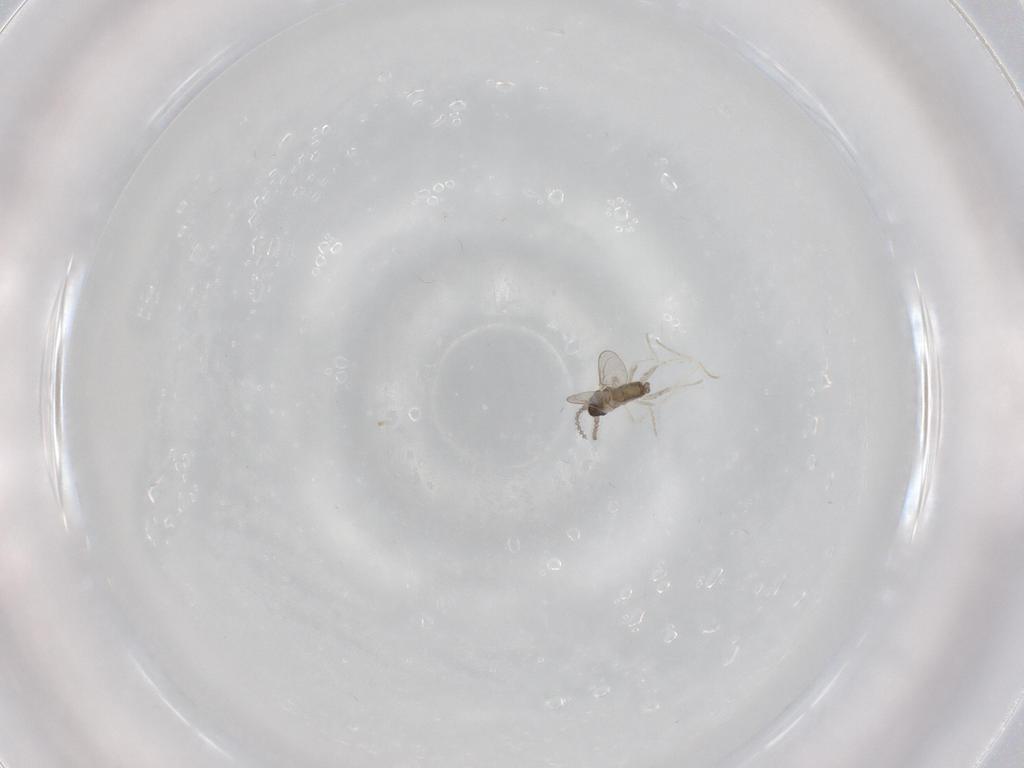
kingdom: Animalia
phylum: Arthropoda
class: Insecta
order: Diptera
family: Cecidomyiidae
